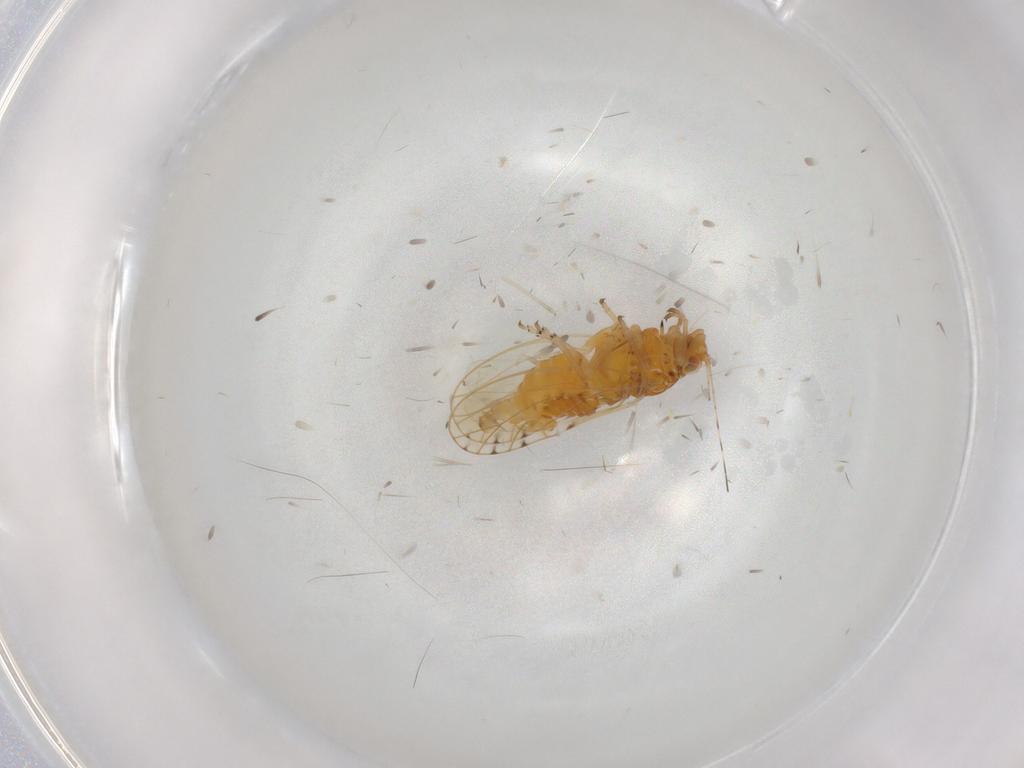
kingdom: Animalia
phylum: Arthropoda
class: Insecta
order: Hemiptera
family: Psylloidea_incertae_sedis
